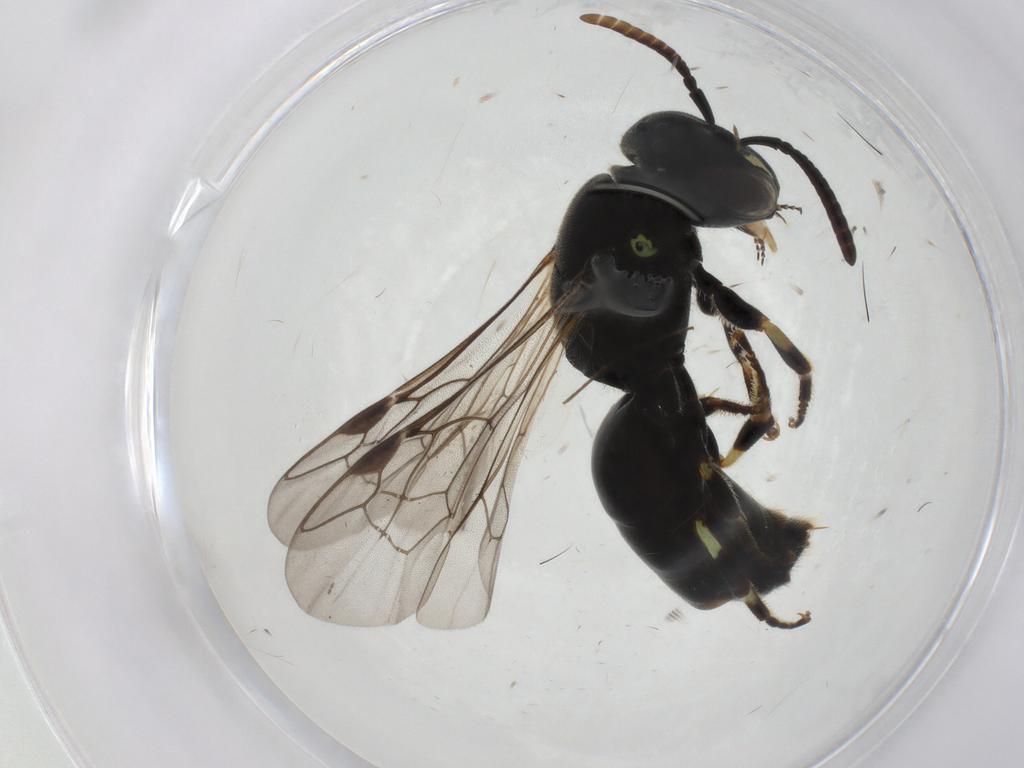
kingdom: Animalia
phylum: Arthropoda
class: Insecta
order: Hymenoptera
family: Colletidae
